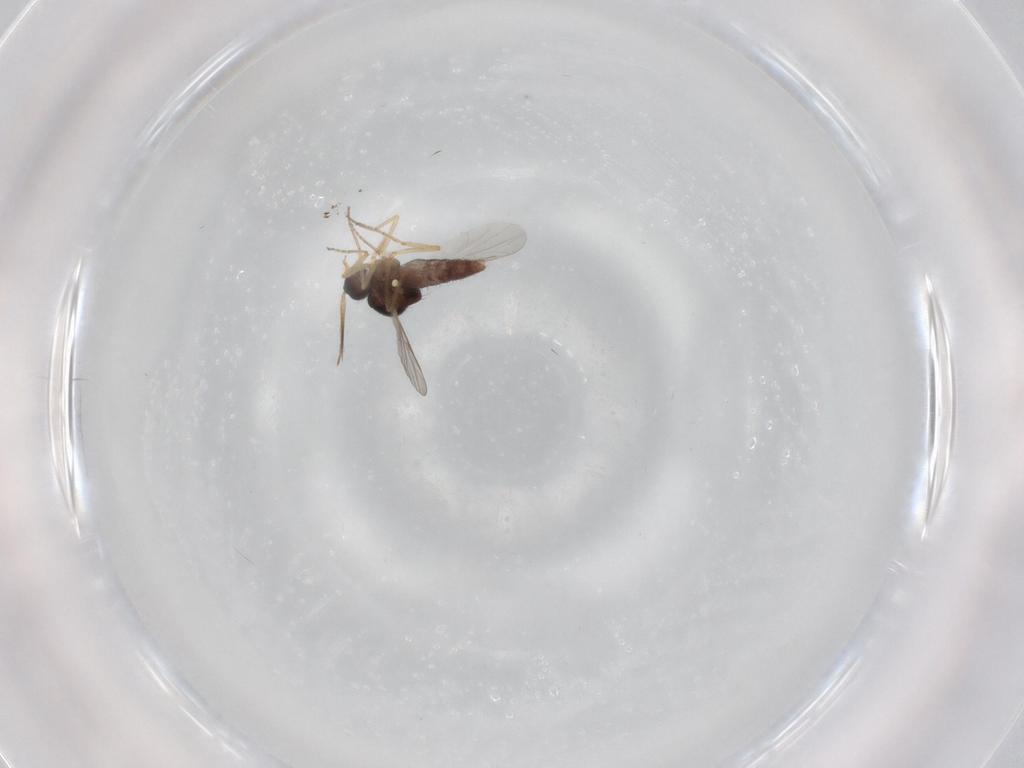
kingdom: Animalia
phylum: Arthropoda
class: Insecta
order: Diptera
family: Ceratopogonidae
